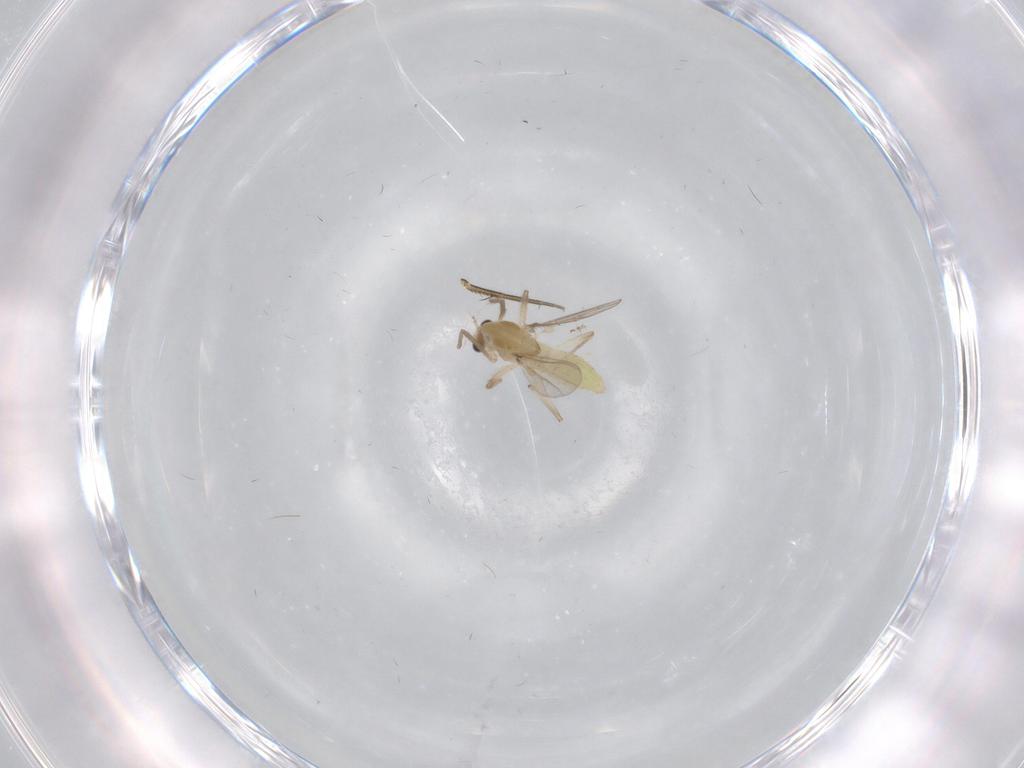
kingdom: Animalia
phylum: Arthropoda
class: Insecta
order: Diptera
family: Chironomidae
